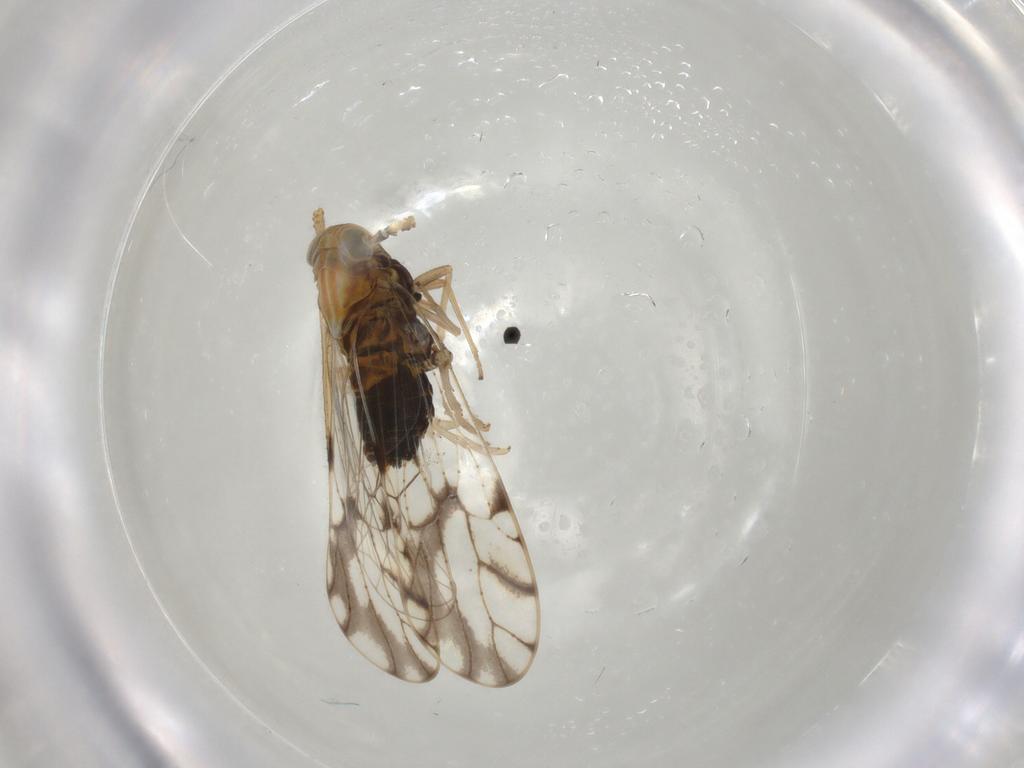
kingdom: Animalia
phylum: Arthropoda
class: Insecta
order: Hemiptera
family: Delphacidae
